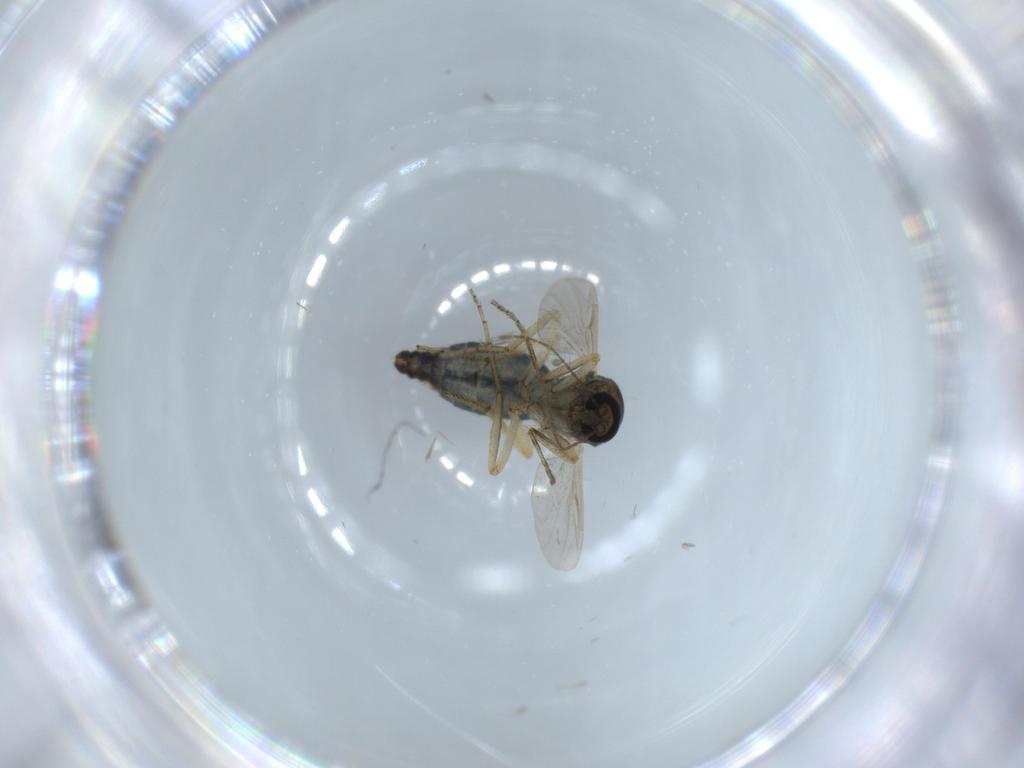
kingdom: Animalia
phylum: Arthropoda
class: Insecta
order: Diptera
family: Ceratopogonidae
